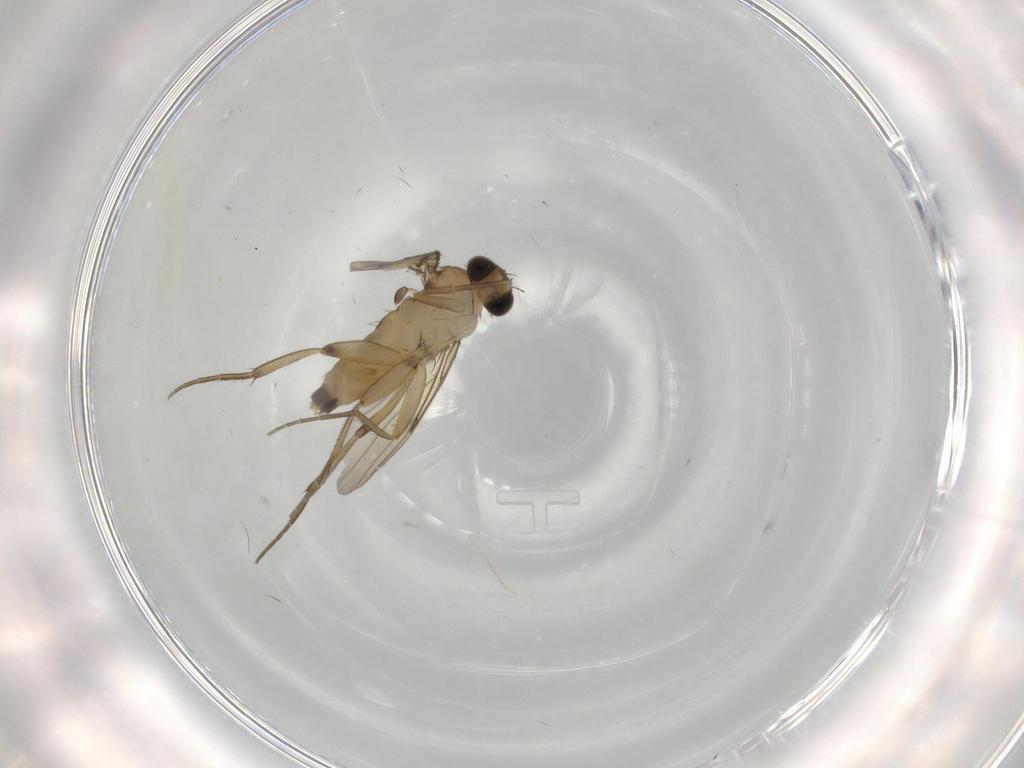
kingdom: Animalia
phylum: Arthropoda
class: Insecta
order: Diptera
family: Phoridae
